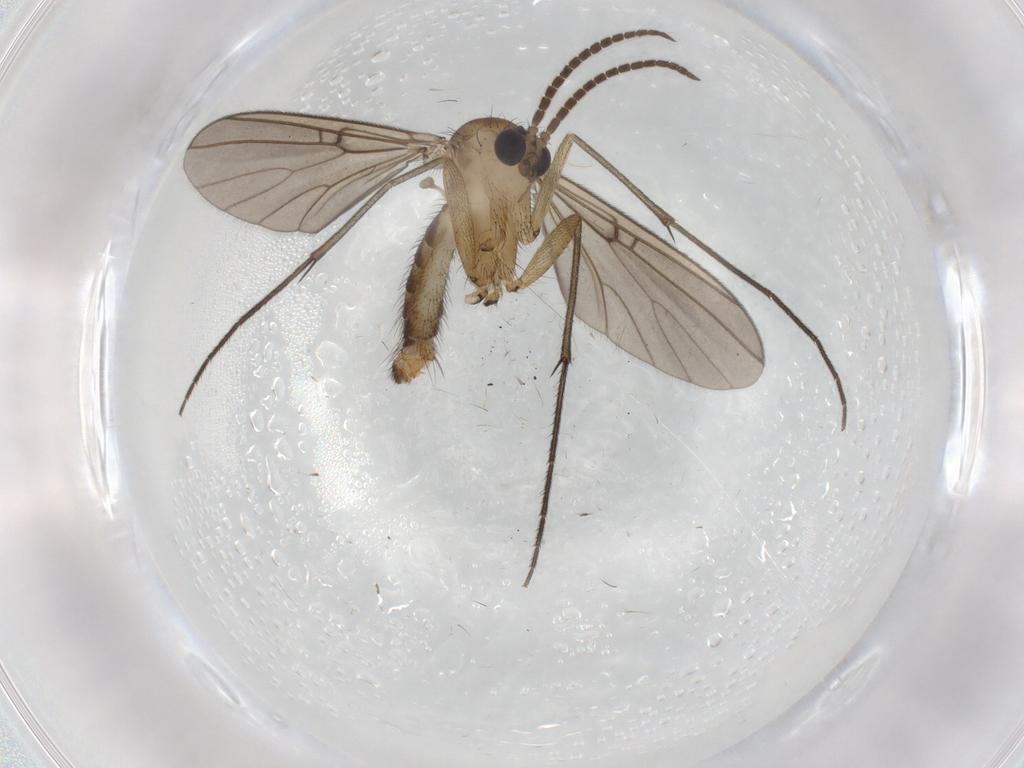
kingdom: Animalia
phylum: Arthropoda
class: Insecta
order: Diptera
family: Mycetophilidae
